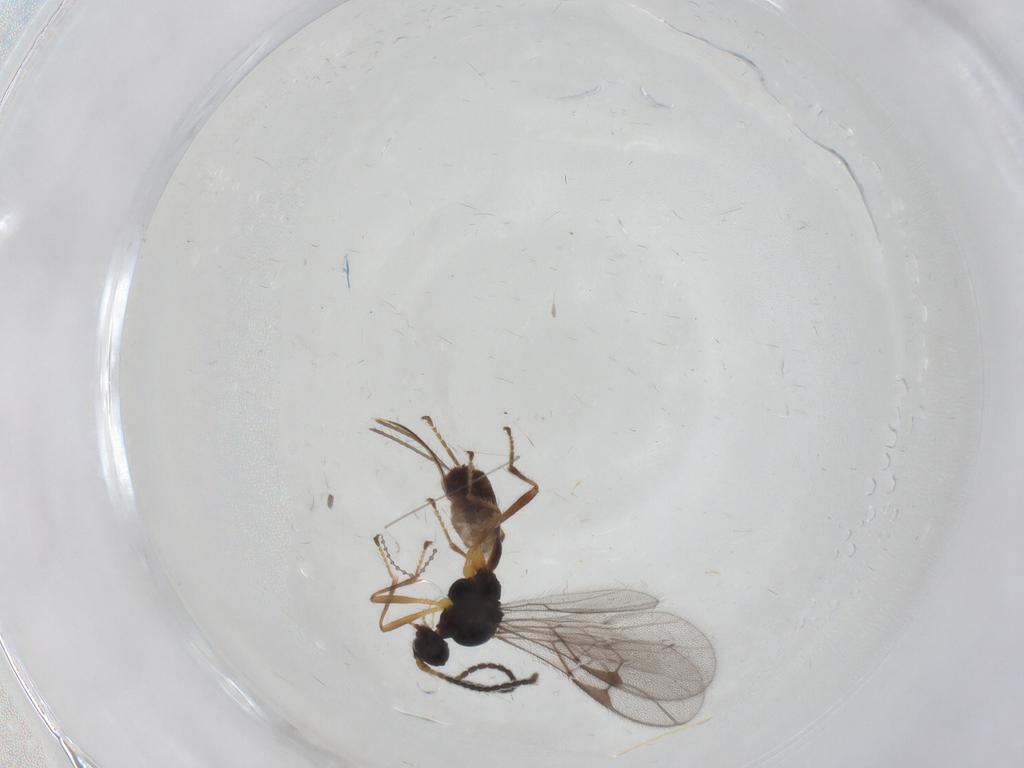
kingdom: Animalia
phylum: Arthropoda
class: Insecta
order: Hymenoptera
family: Braconidae
